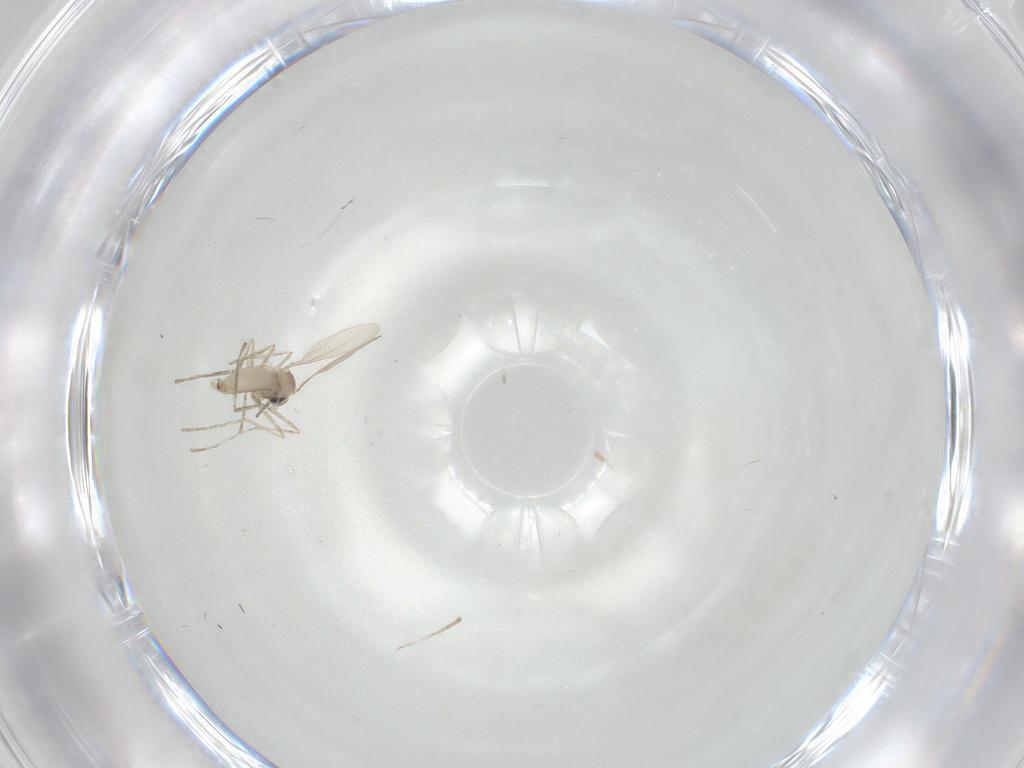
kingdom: Animalia
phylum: Arthropoda
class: Insecta
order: Diptera
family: Cecidomyiidae
